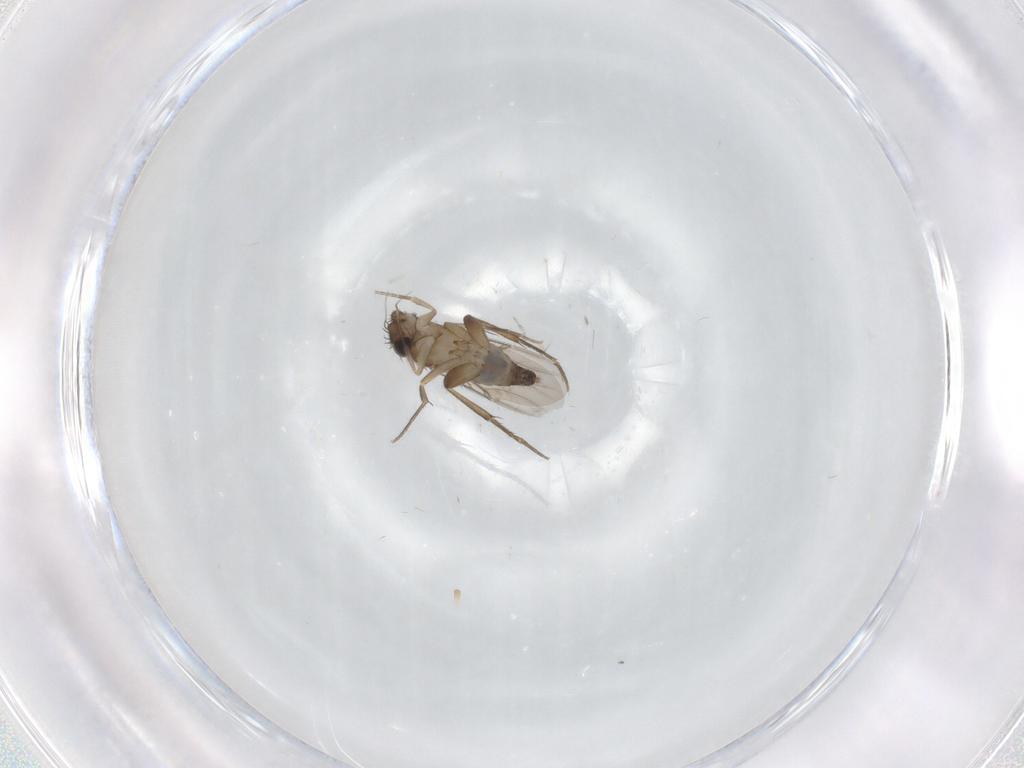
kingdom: Animalia
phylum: Arthropoda
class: Insecta
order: Diptera
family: Phoridae
